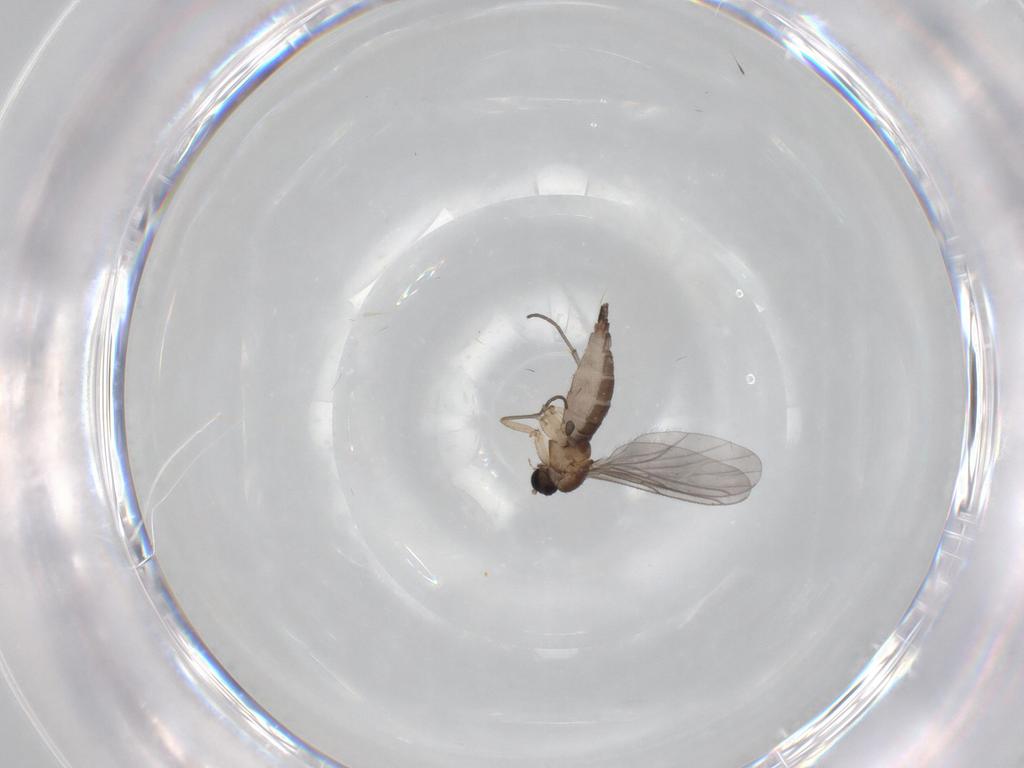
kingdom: Animalia
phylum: Arthropoda
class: Insecta
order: Diptera
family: Sciaridae
